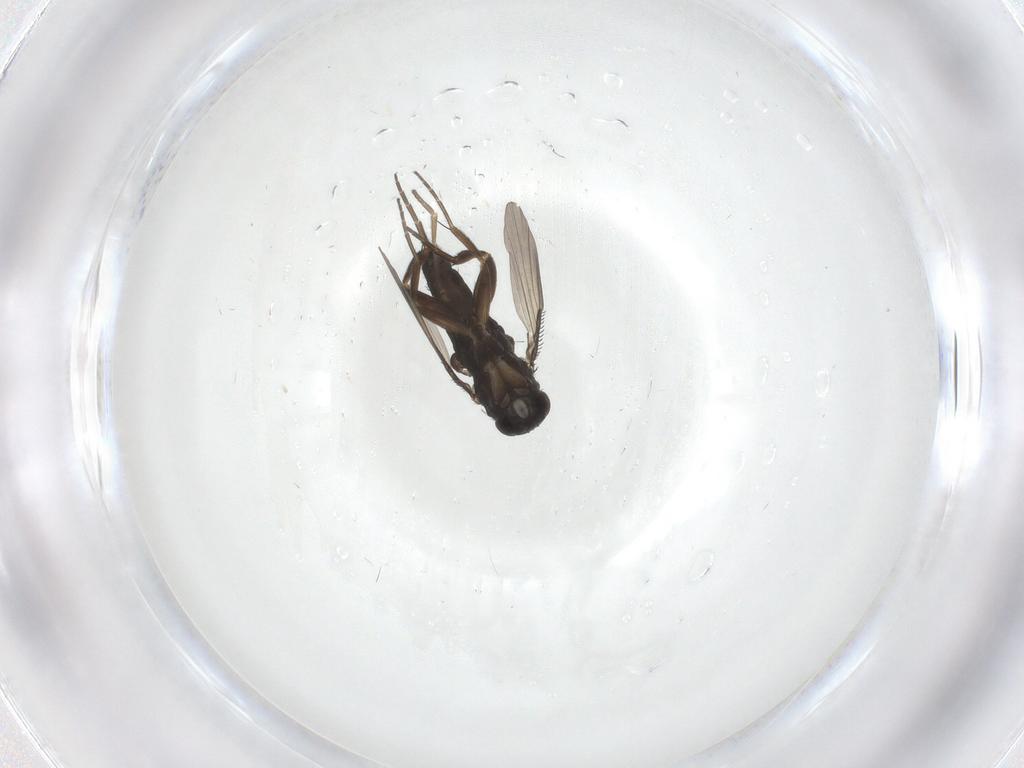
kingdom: Animalia
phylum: Arthropoda
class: Insecta
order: Diptera
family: Phoridae
